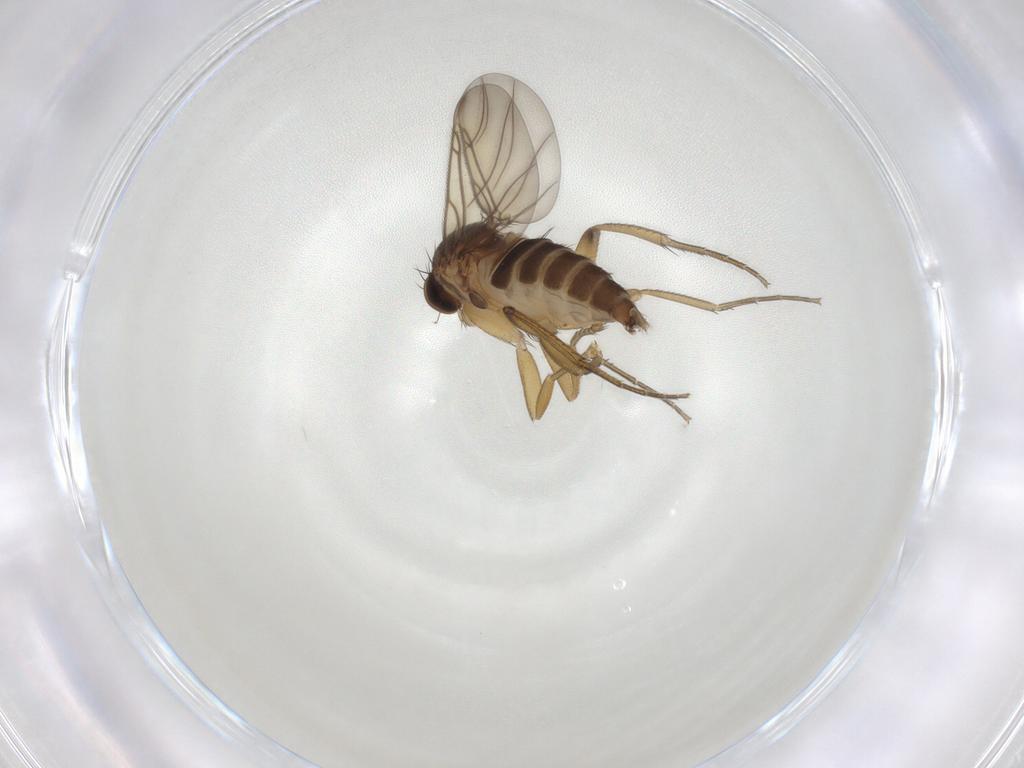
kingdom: Animalia
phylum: Arthropoda
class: Insecta
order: Diptera
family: Phoridae
